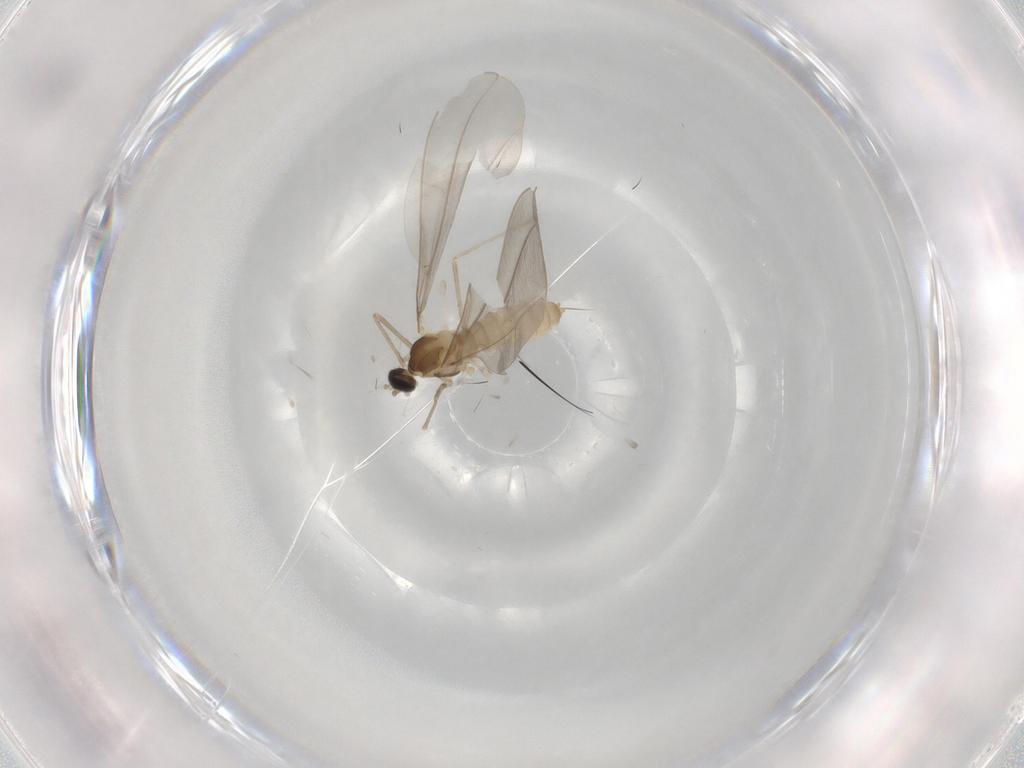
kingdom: Animalia
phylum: Arthropoda
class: Insecta
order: Diptera
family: Cecidomyiidae
